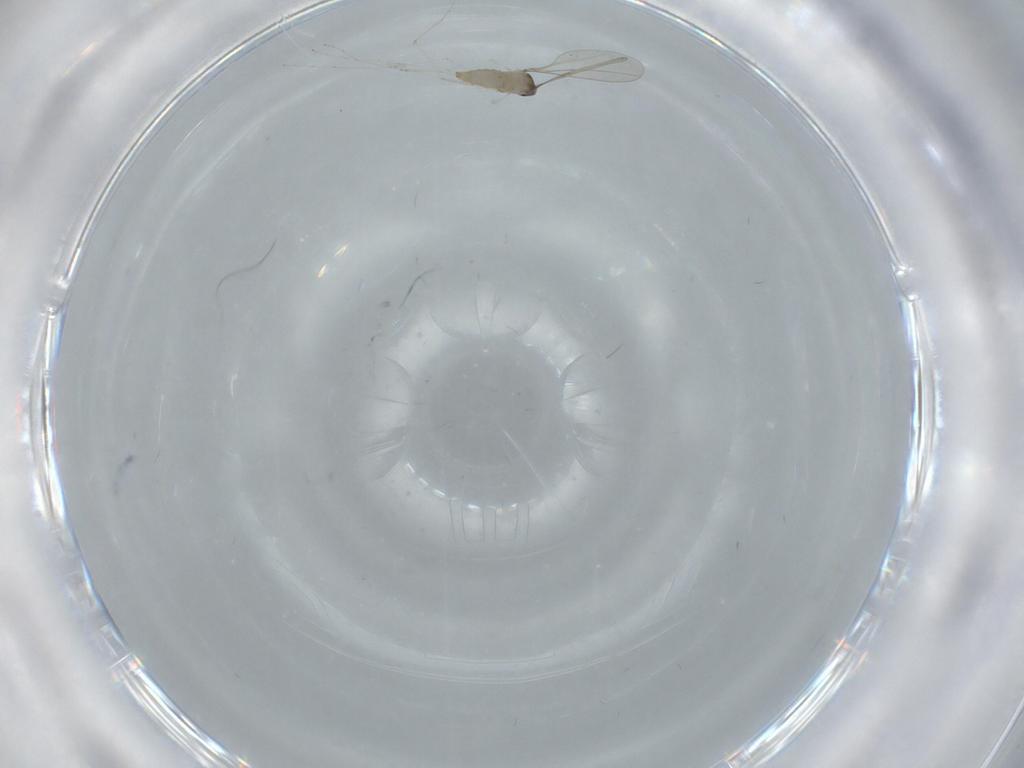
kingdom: Animalia
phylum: Arthropoda
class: Insecta
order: Diptera
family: Cecidomyiidae
